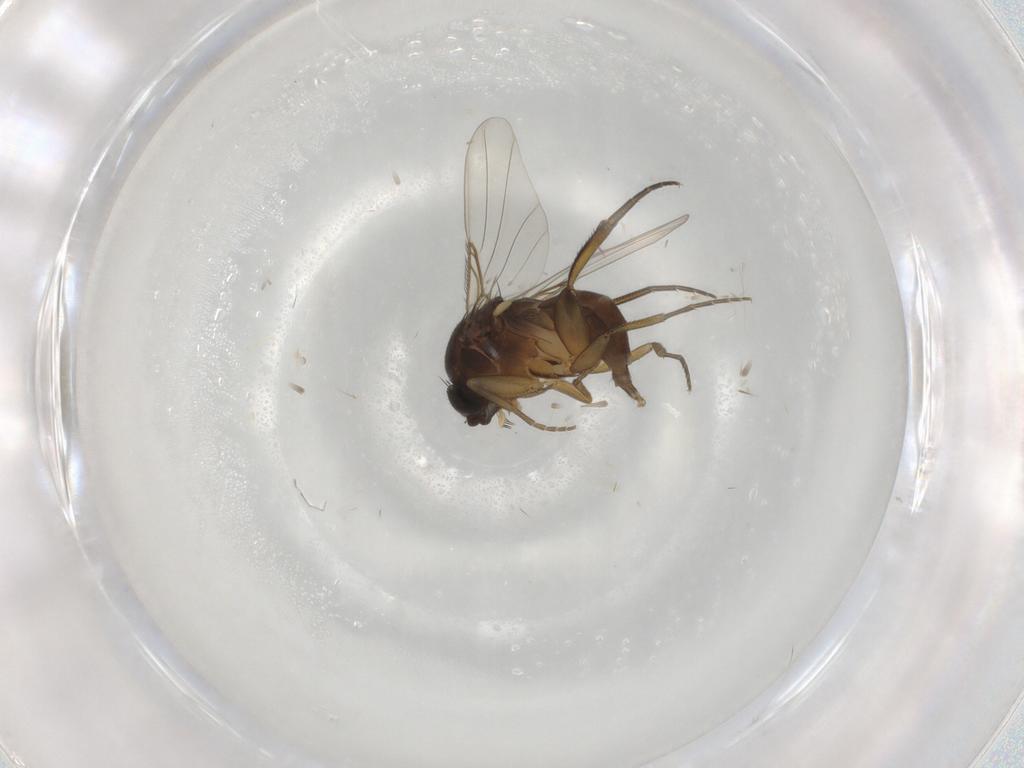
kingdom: Animalia
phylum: Arthropoda
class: Insecta
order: Diptera
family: Phoridae
